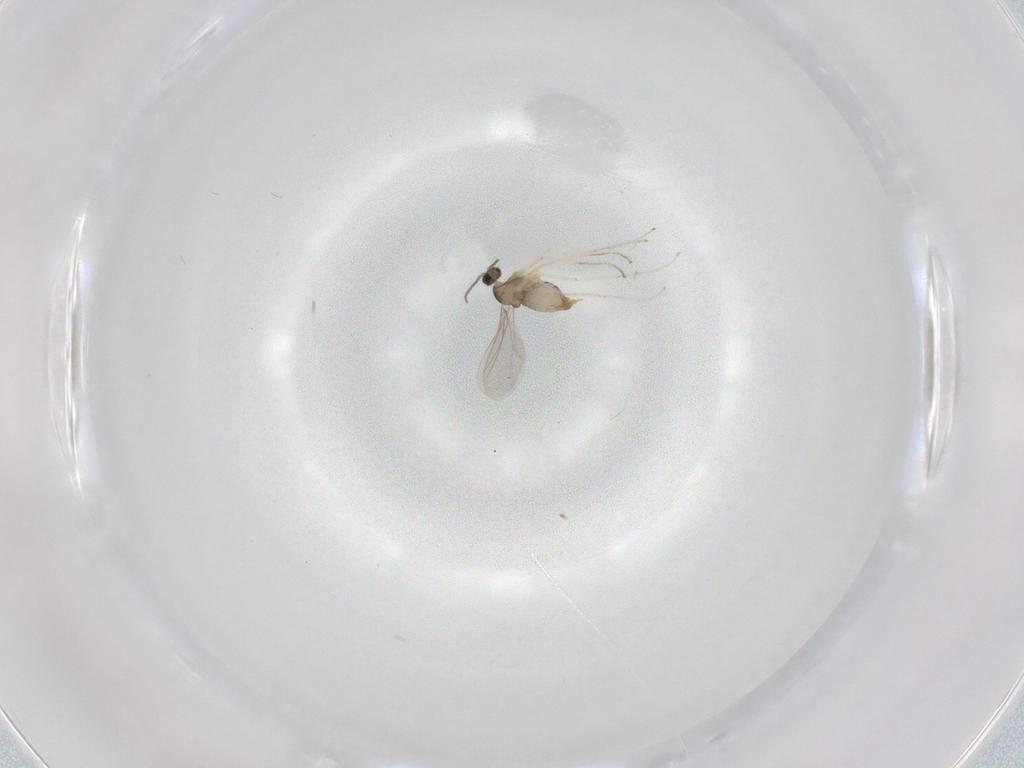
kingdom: Animalia
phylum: Arthropoda
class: Insecta
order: Diptera
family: Cecidomyiidae
